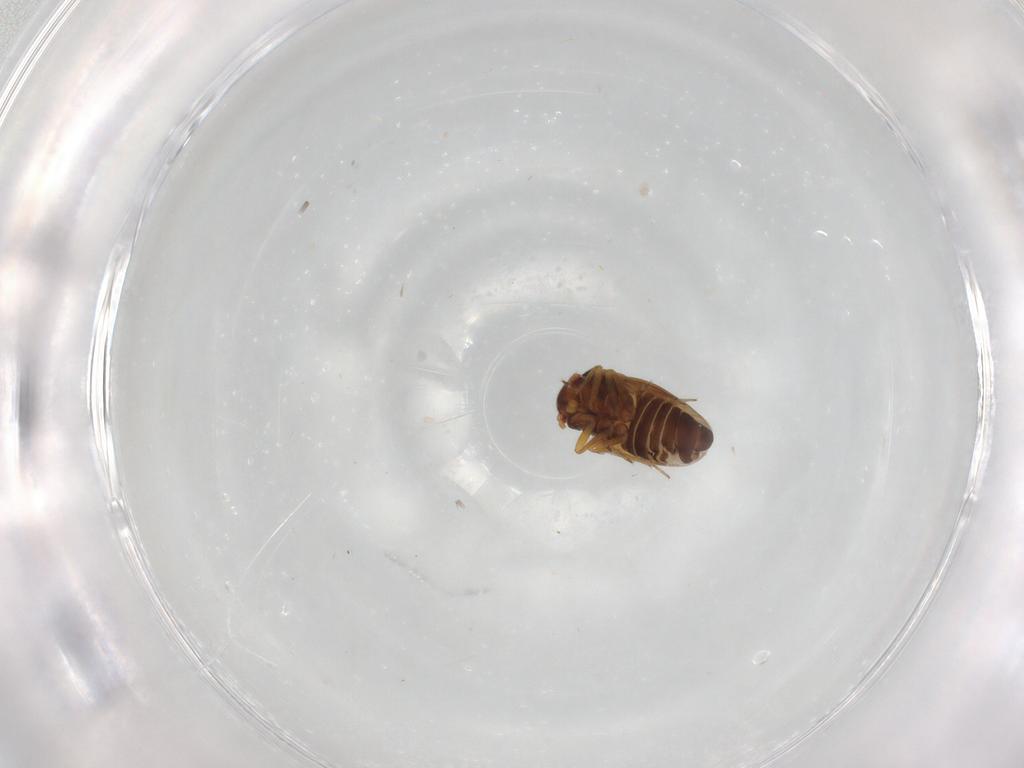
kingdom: Animalia
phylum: Arthropoda
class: Insecta
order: Hemiptera
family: Schizopteridae
